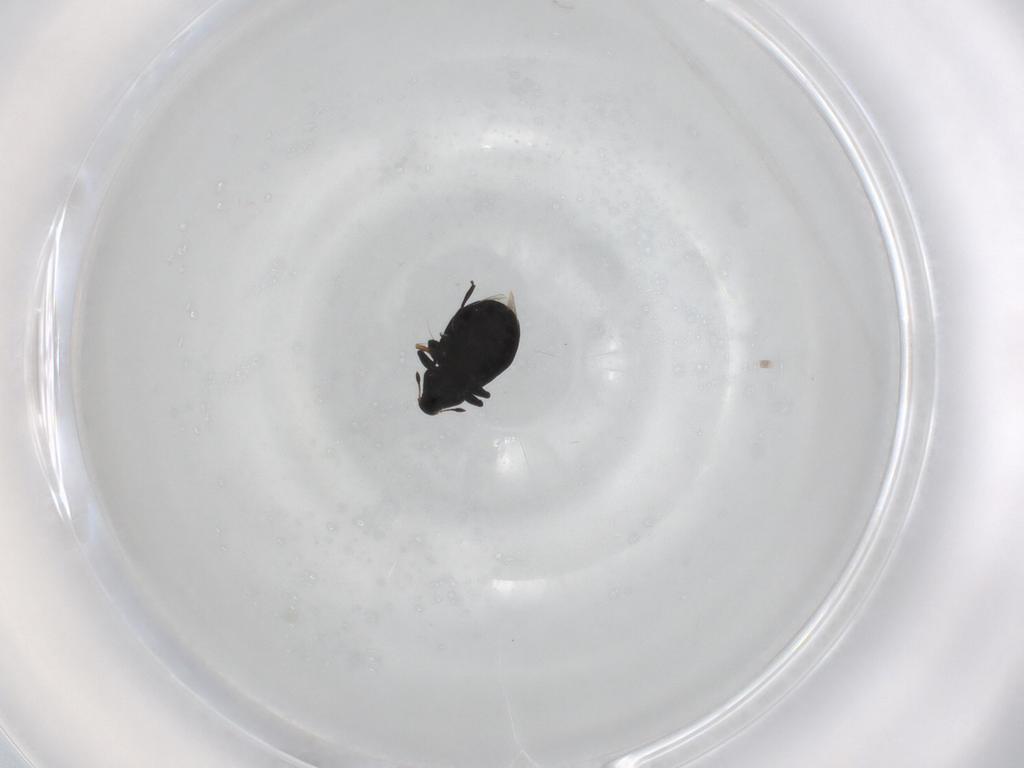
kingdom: Animalia
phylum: Arthropoda
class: Insecta
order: Coleoptera
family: Curculionidae
